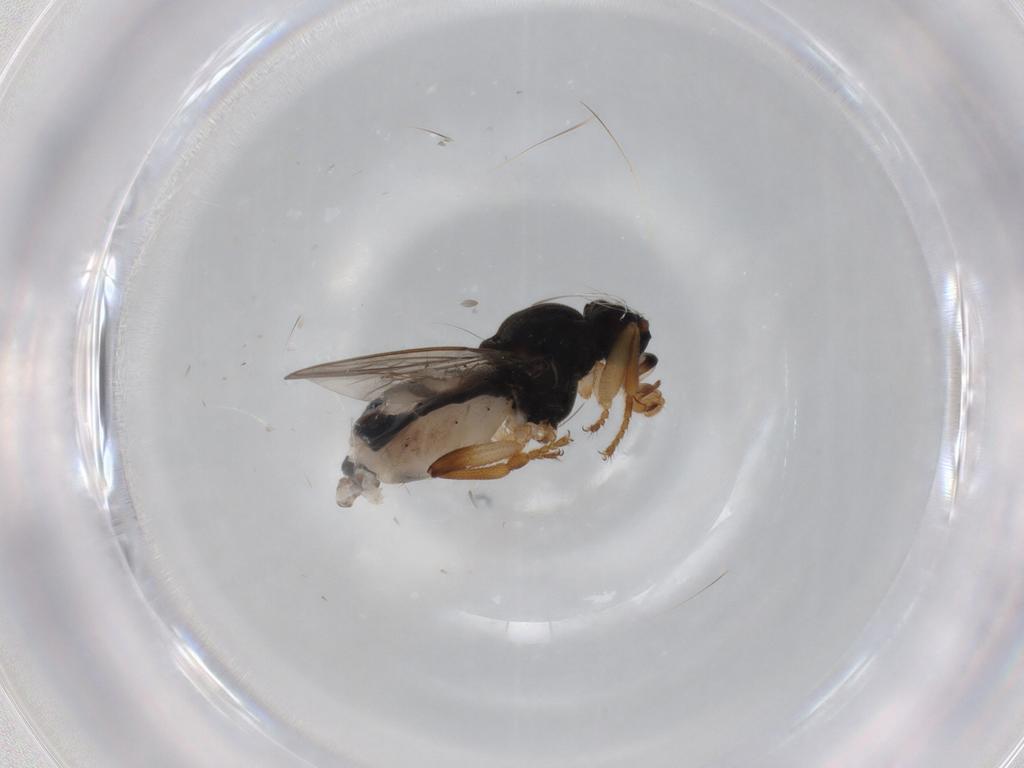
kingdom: Animalia
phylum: Arthropoda
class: Insecta
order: Diptera
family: Sphaeroceridae
